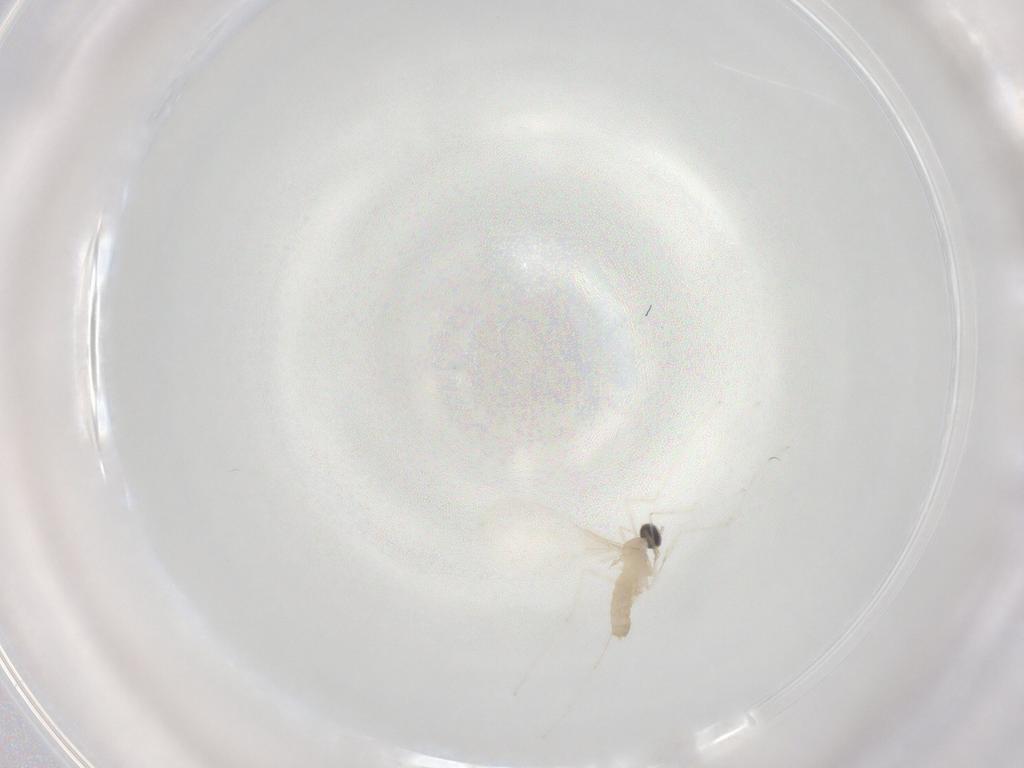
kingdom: Animalia
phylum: Arthropoda
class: Insecta
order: Diptera
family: Cecidomyiidae
